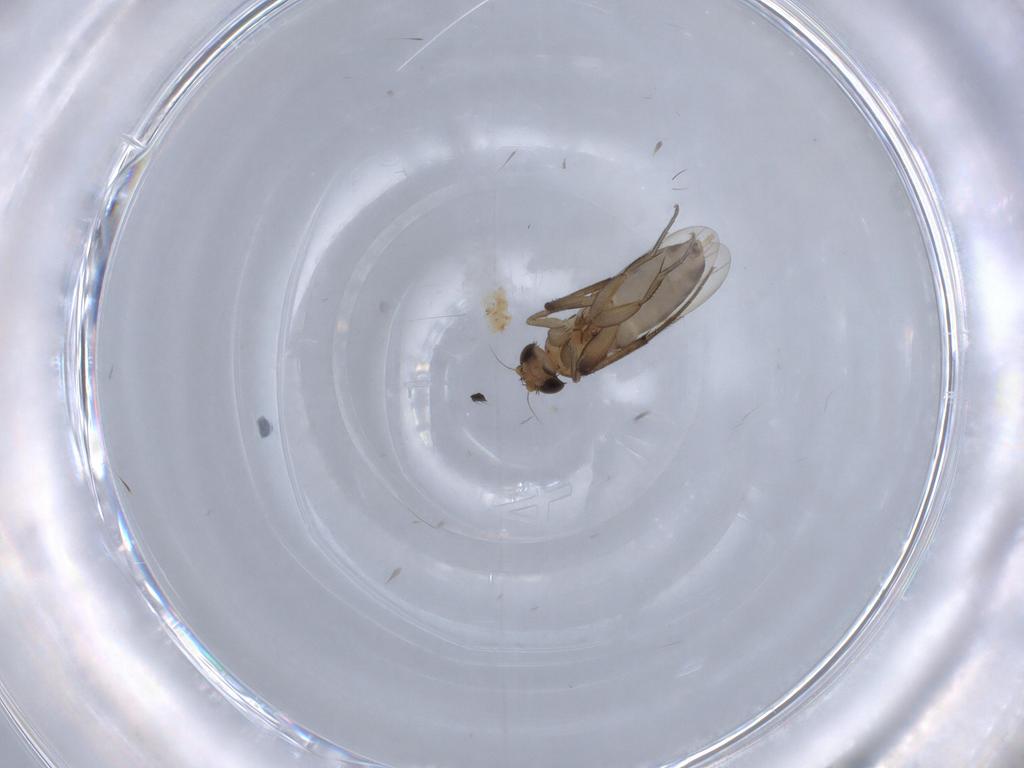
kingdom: Animalia
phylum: Arthropoda
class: Insecta
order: Diptera
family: Phoridae
